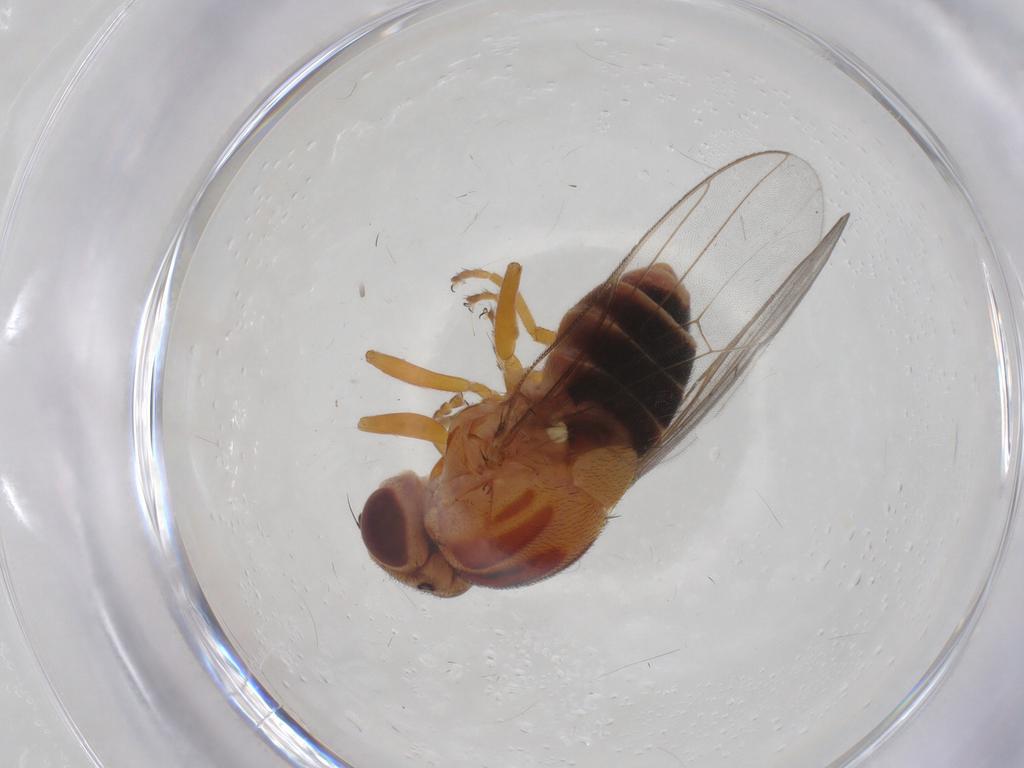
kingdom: Animalia
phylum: Arthropoda
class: Insecta
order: Diptera
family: Chloropidae
